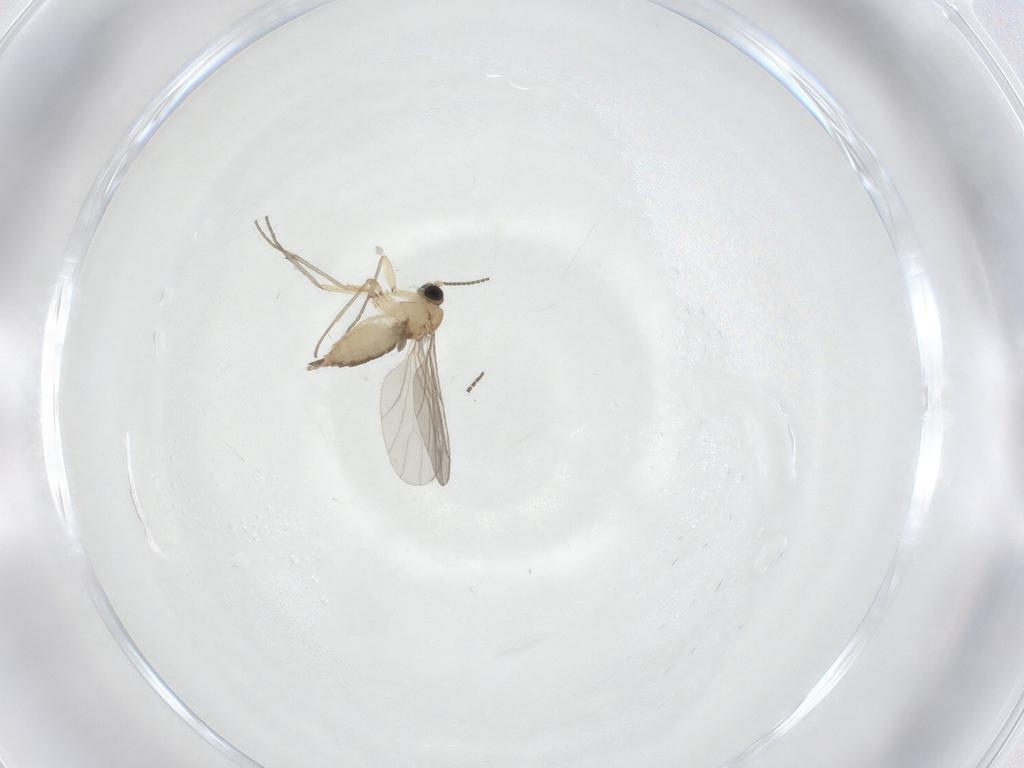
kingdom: Animalia
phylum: Arthropoda
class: Insecta
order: Diptera
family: Sciaridae
